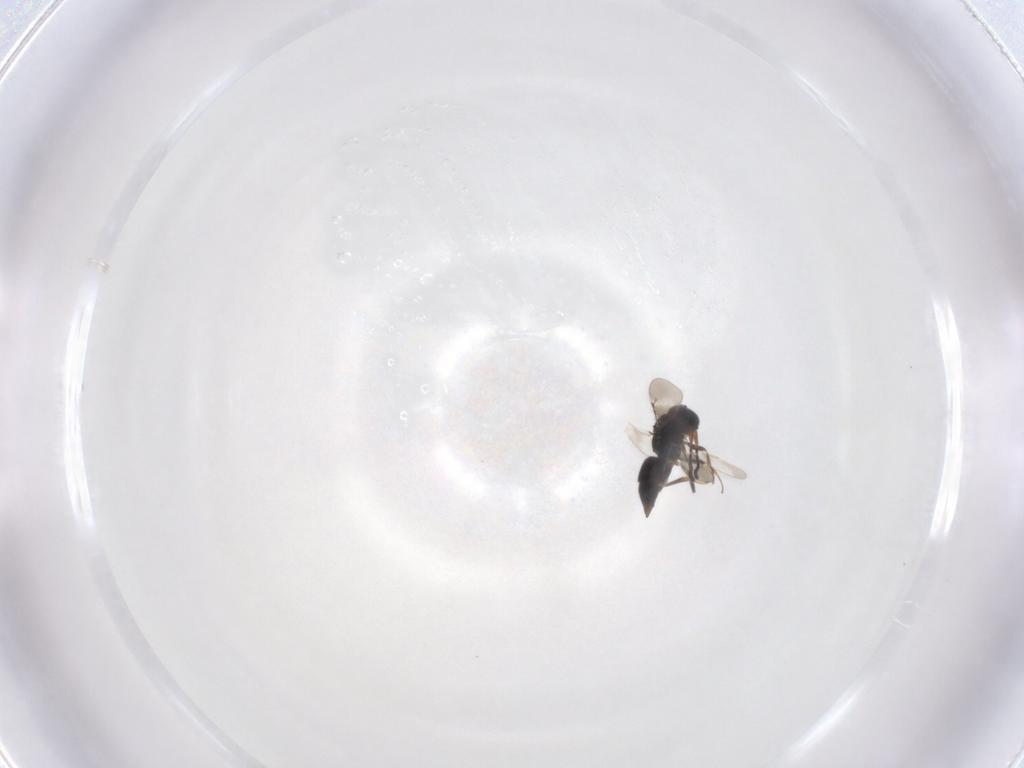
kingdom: Animalia
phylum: Arthropoda
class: Insecta
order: Hymenoptera
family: Ceraphronidae
